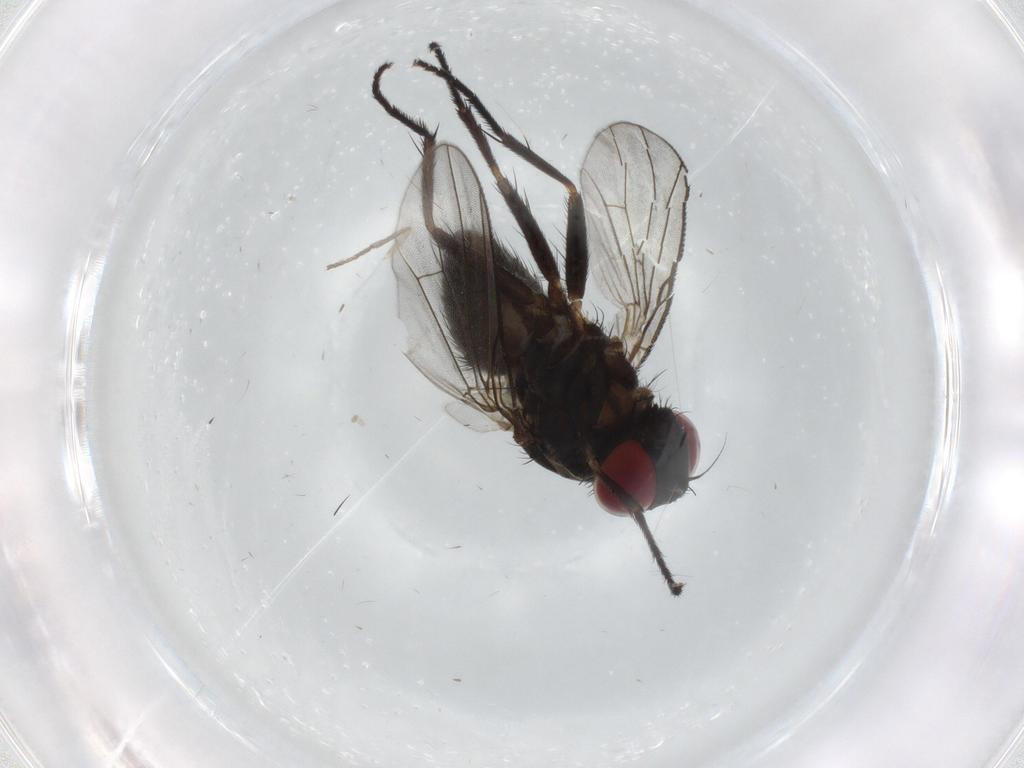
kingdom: Animalia
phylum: Arthropoda
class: Insecta
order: Diptera
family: Muscidae
